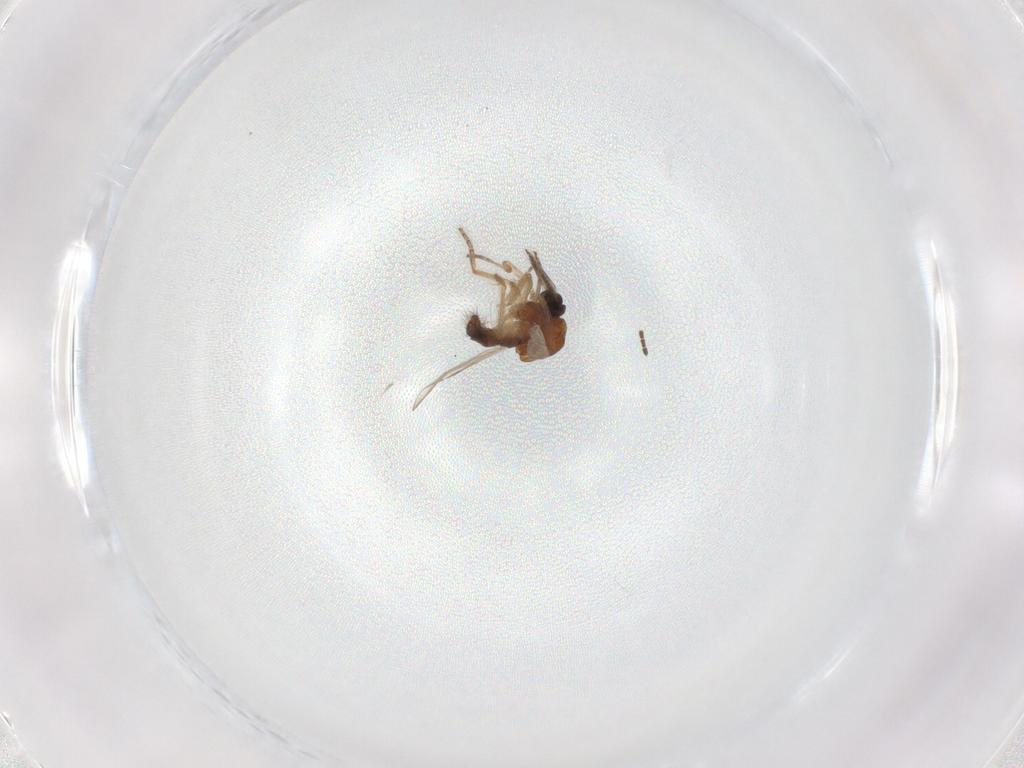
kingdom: Animalia
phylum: Arthropoda
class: Insecta
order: Diptera
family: Ceratopogonidae
